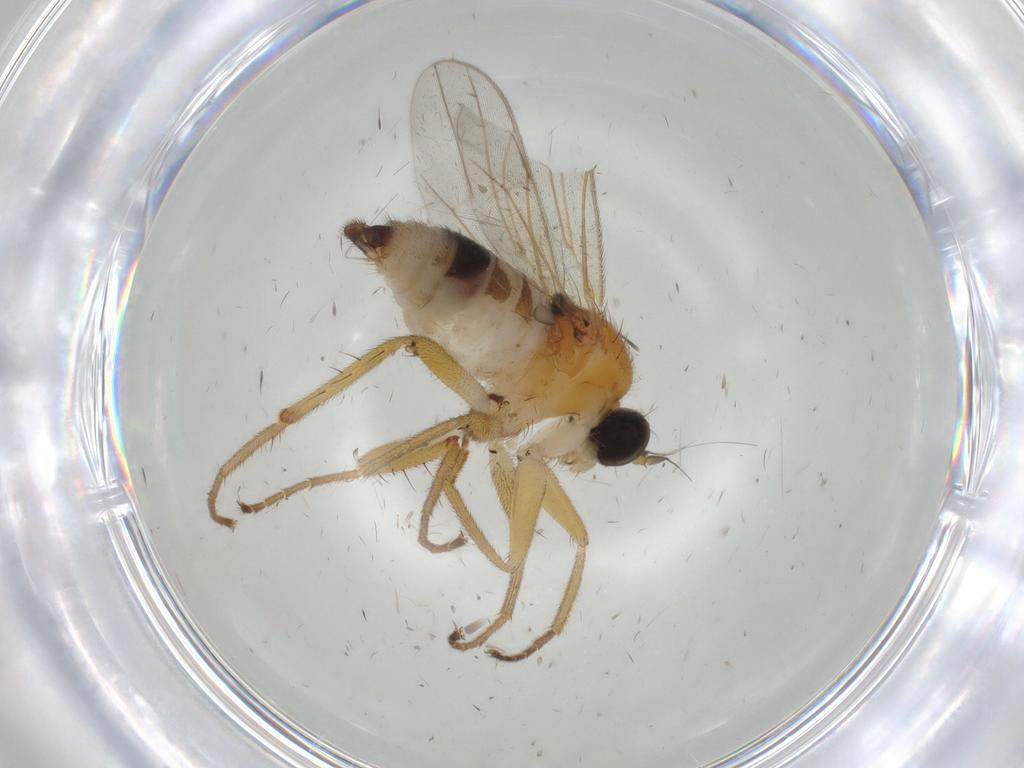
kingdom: Animalia
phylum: Arthropoda
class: Insecta
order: Diptera
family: Hybotidae
